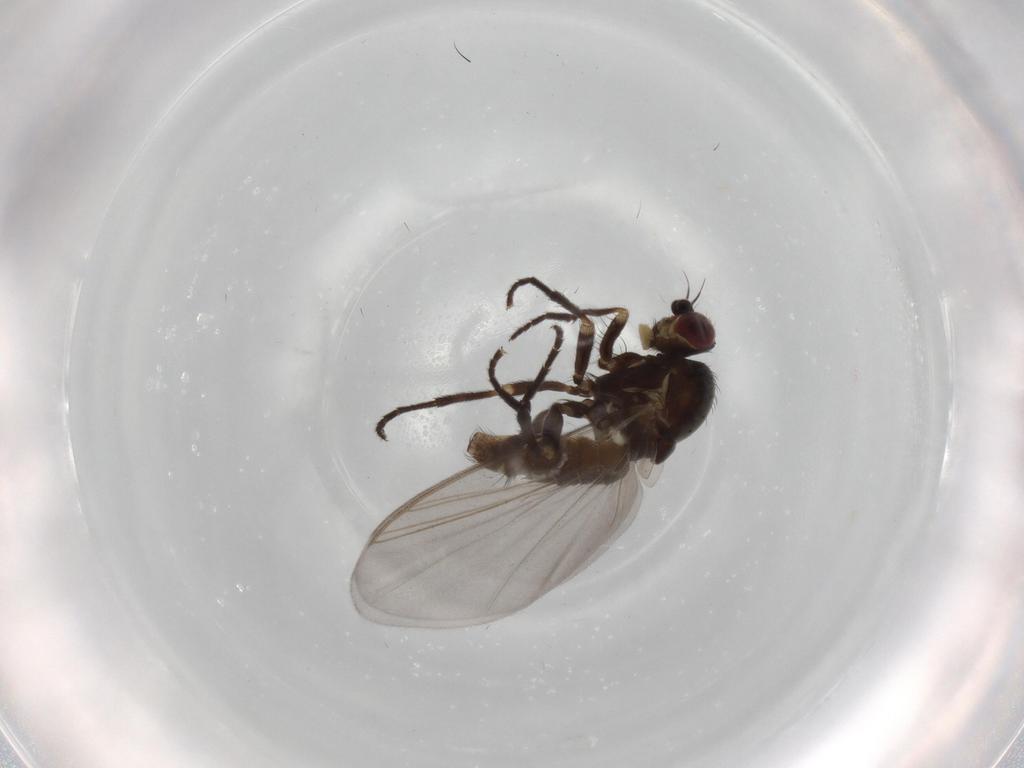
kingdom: Animalia
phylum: Arthropoda
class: Insecta
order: Diptera
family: Agromyzidae
